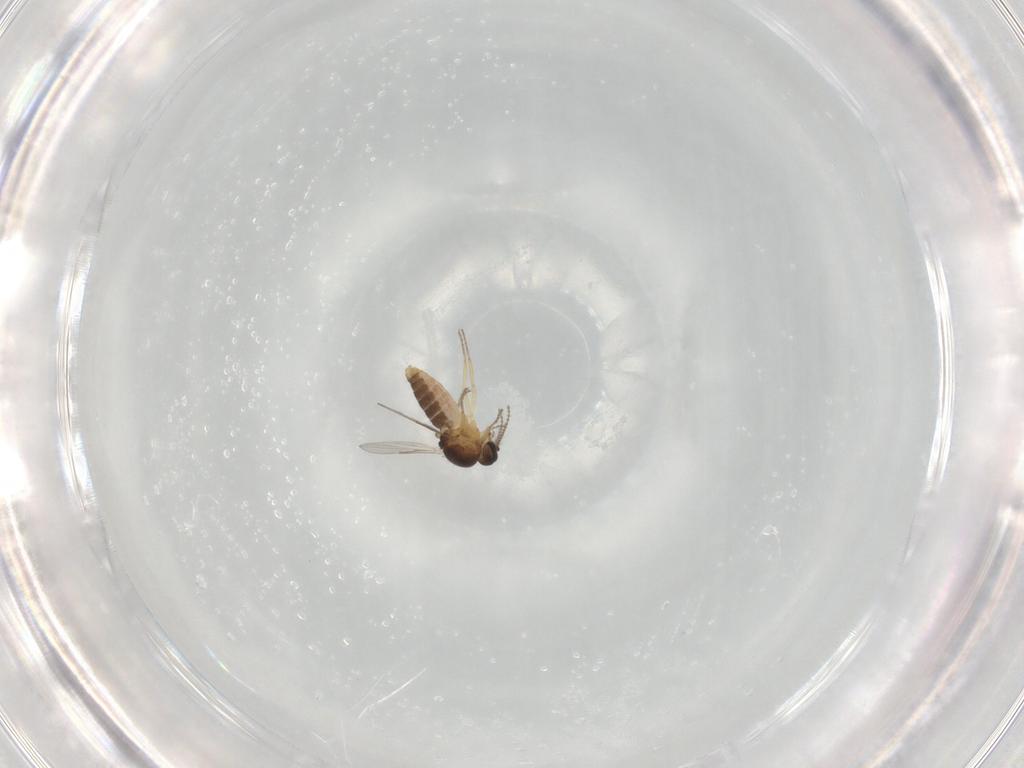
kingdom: Animalia
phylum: Arthropoda
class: Insecta
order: Diptera
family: Ceratopogonidae
